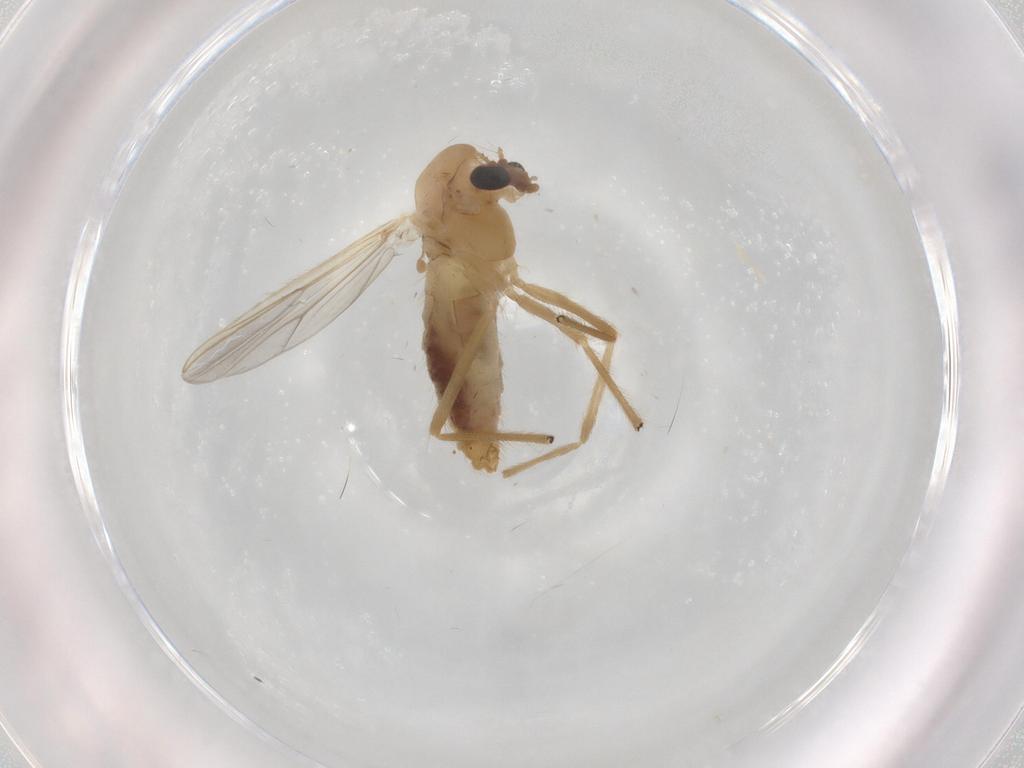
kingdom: Animalia
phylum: Arthropoda
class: Insecta
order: Diptera
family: Chironomidae
